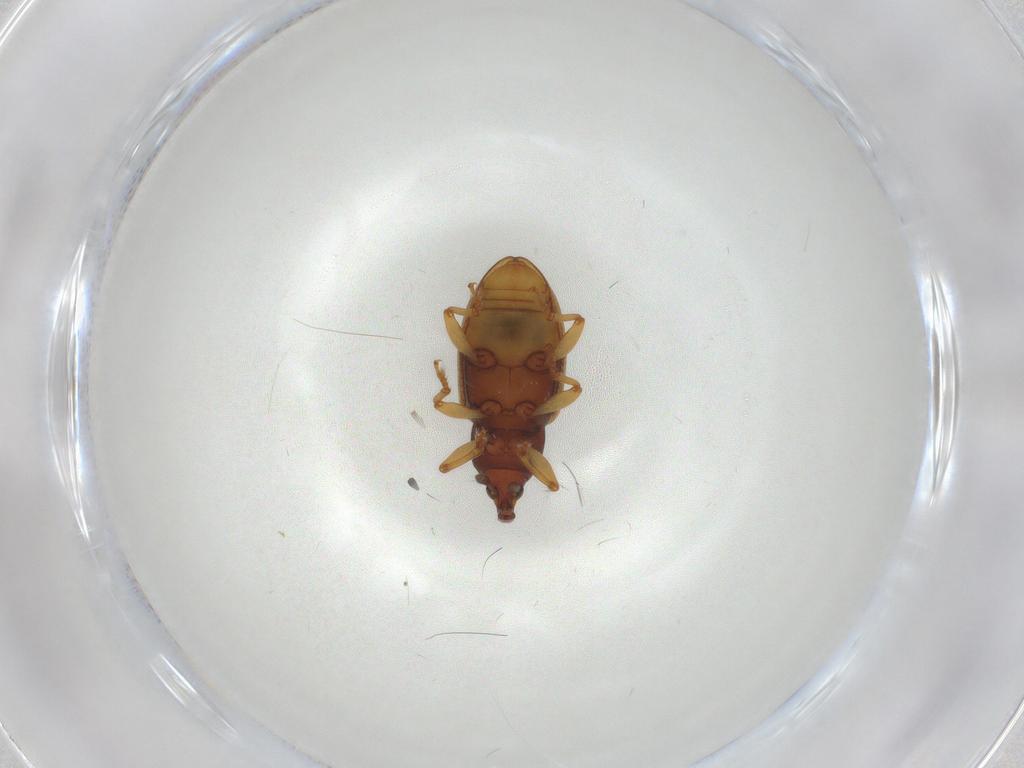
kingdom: Animalia
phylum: Arthropoda
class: Insecta
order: Coleoptera
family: Curculionidae
